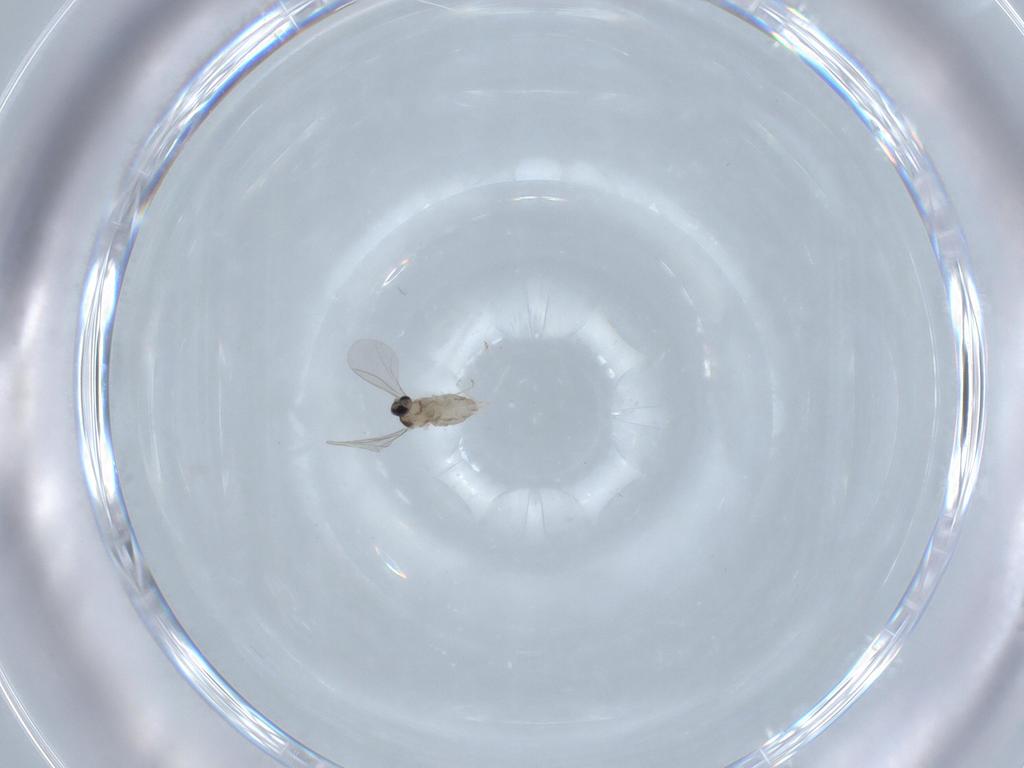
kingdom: Animalia
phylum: Arthropoda
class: Insecta
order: Diptera
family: Cecidomyiidae
